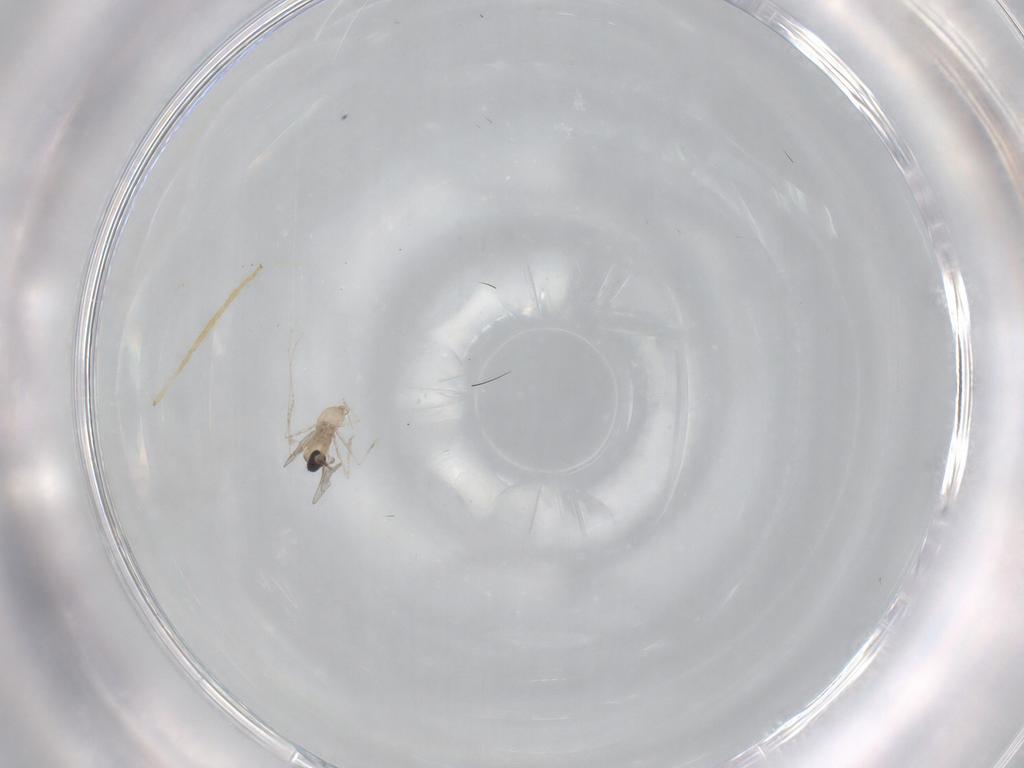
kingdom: Animalia
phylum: Arthropoda
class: Insecta
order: Diptera
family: Cecidomyiidae
